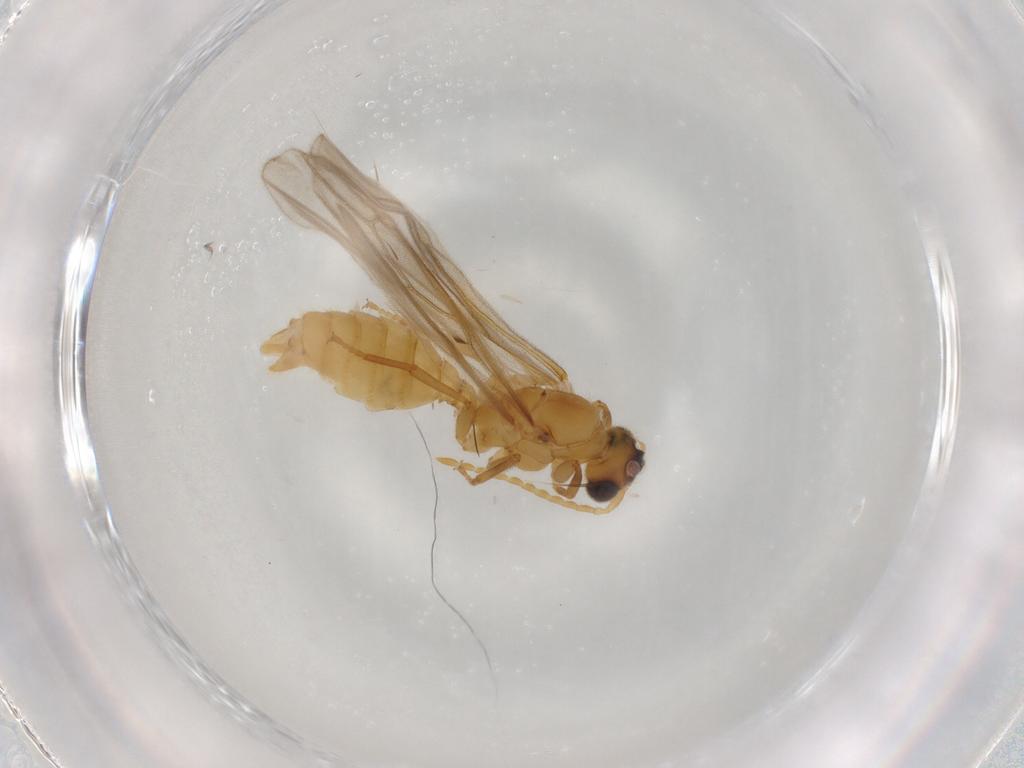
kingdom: Animalia
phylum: Arthropoda
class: Insecta
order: Hymenoptera
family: Formicidae
